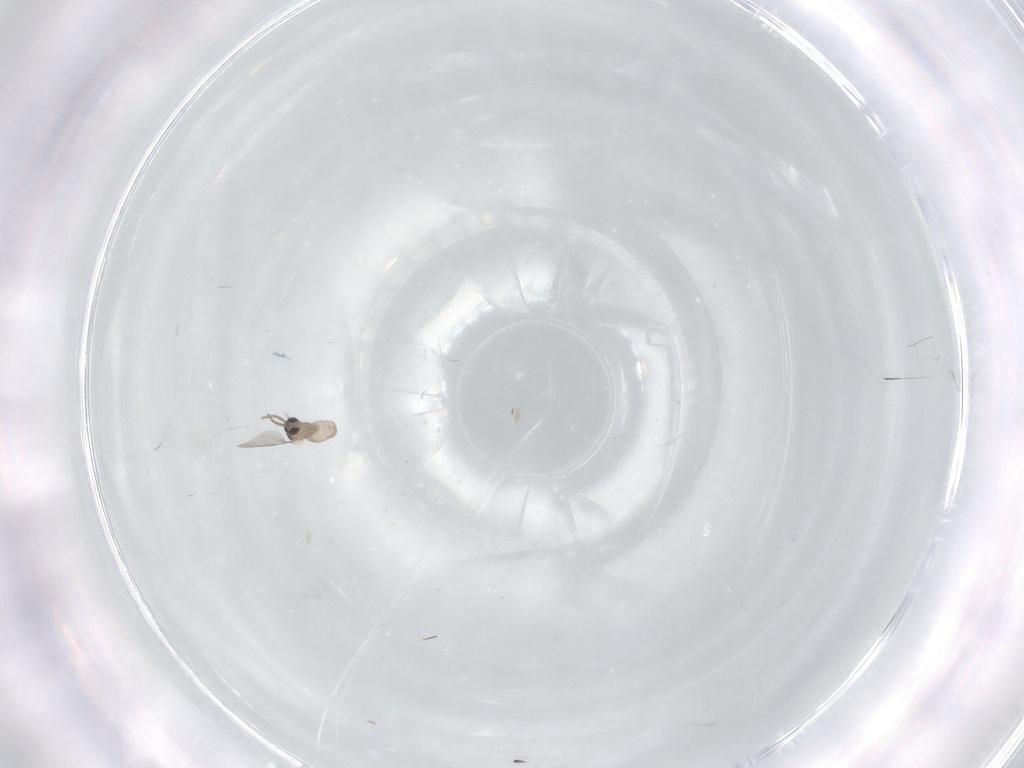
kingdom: Animalia
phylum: Arthropoda
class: Insecta
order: Diptera
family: Cecidomyiidae
